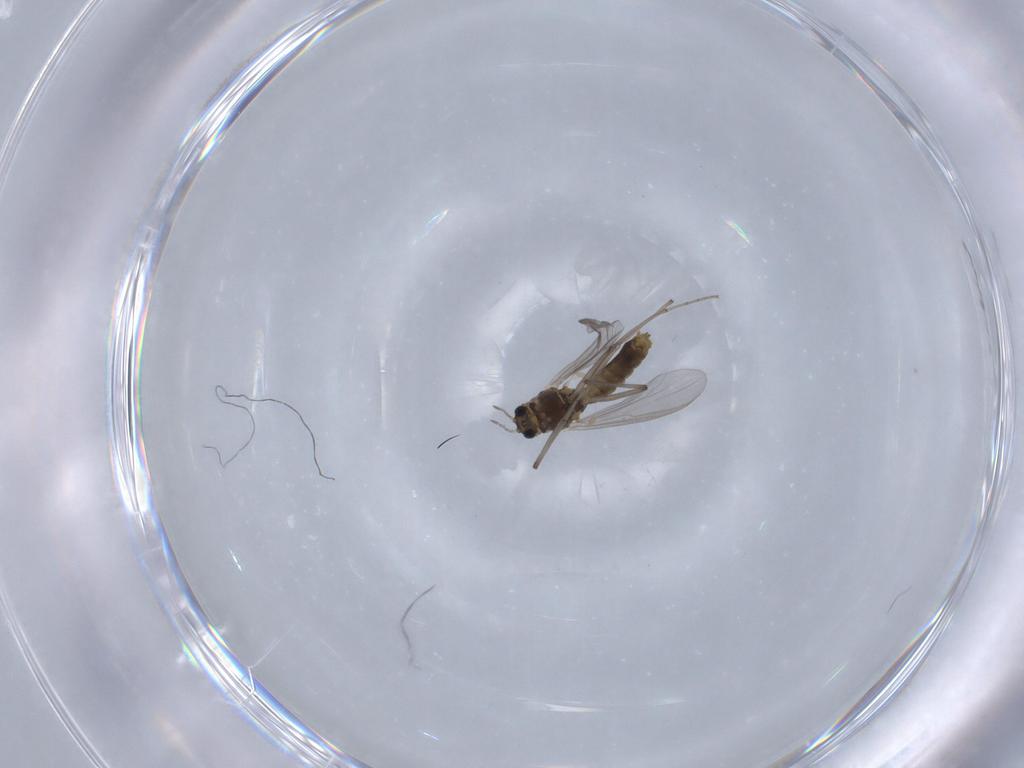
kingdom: Animalia
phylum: Arthropoda
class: Insecta
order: Diptera
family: Chironomidae
